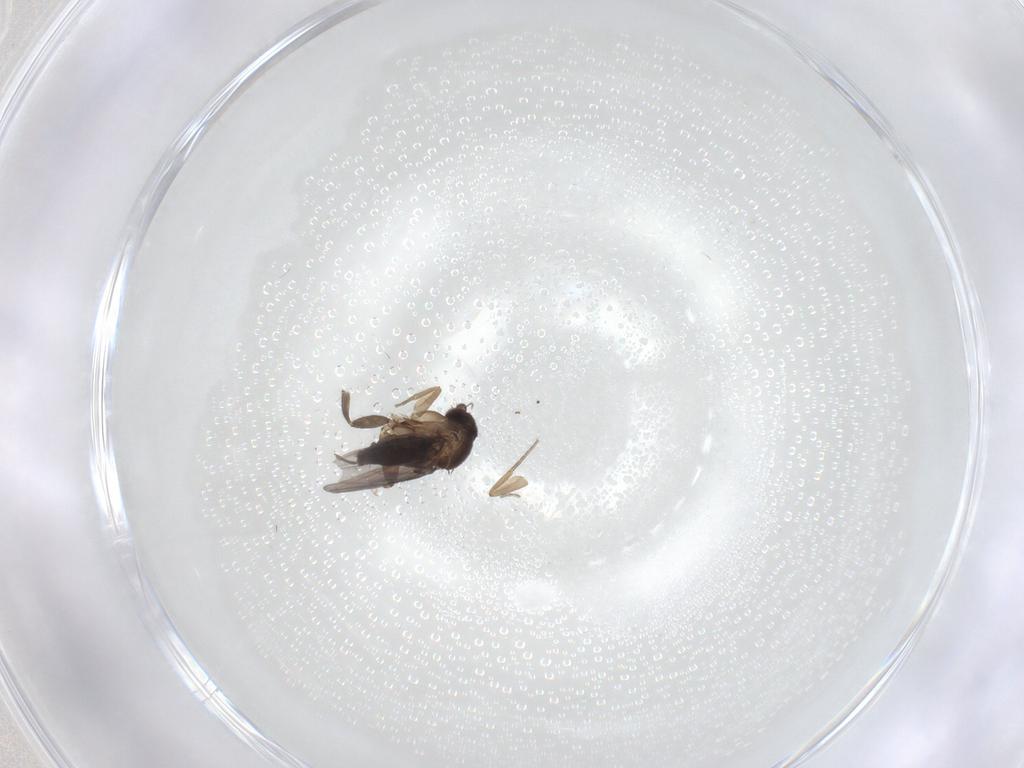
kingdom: Animalia
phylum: Arthropoda
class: Insecta
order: Diptera
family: Phoridae
